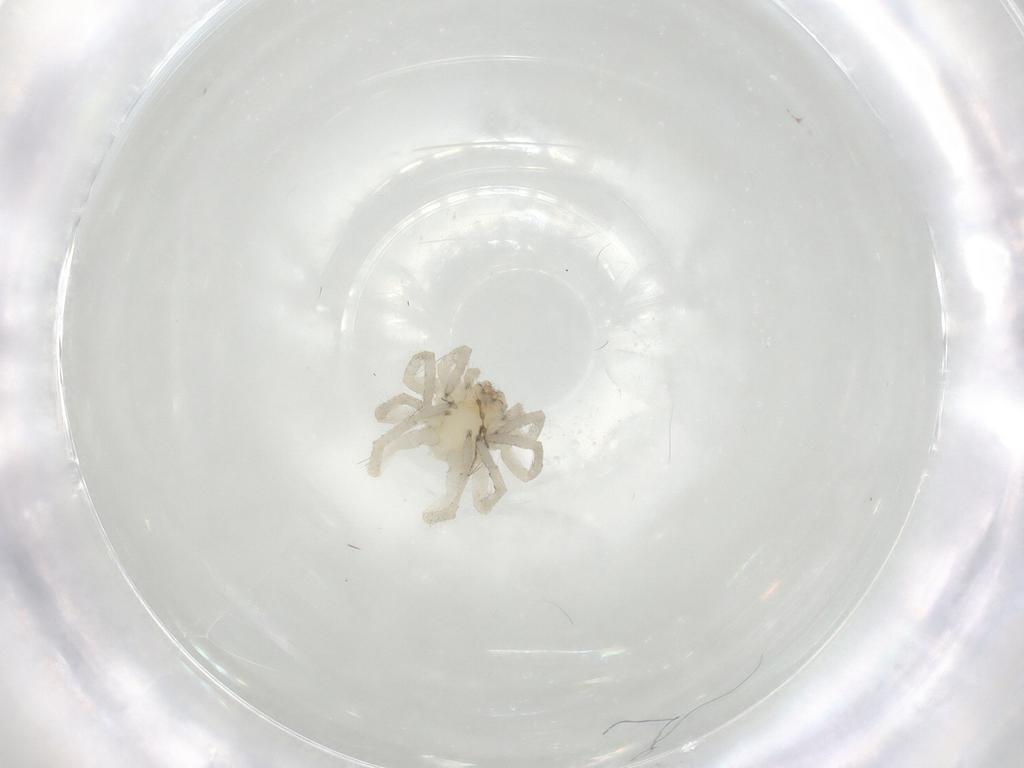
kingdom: Animalia
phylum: Arthropoda
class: Arachnida
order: Araneae
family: Clubionidae
